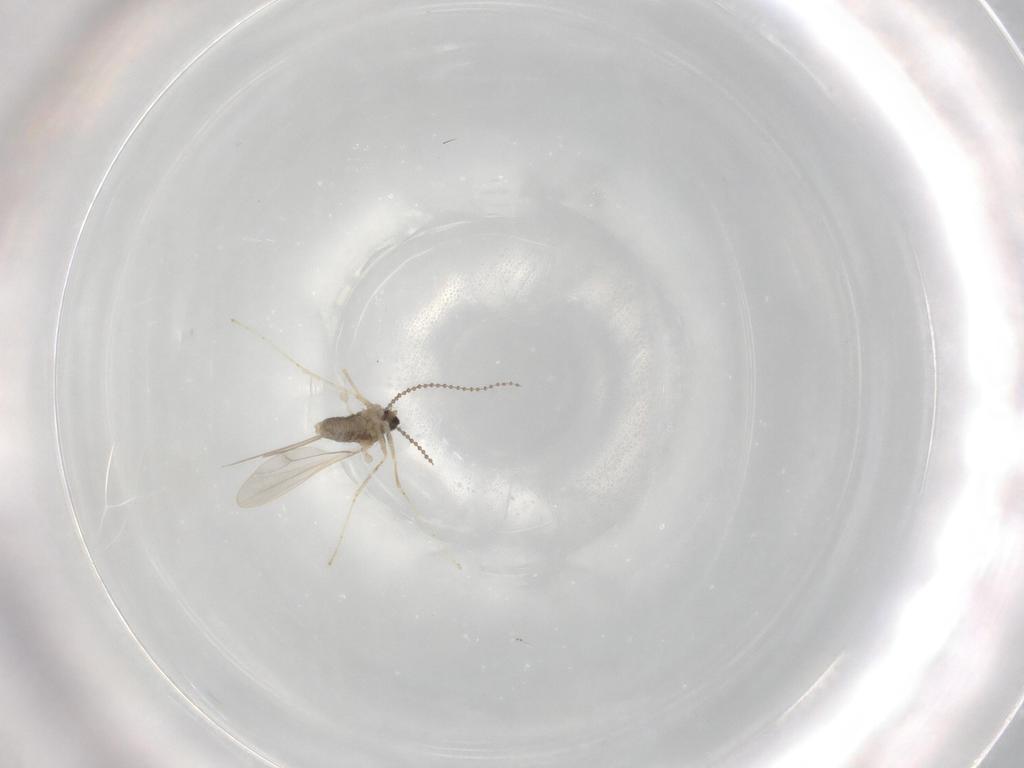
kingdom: Animalia
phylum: Arthropoda
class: Insecta
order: Diptera
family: Cecidomyiidae
